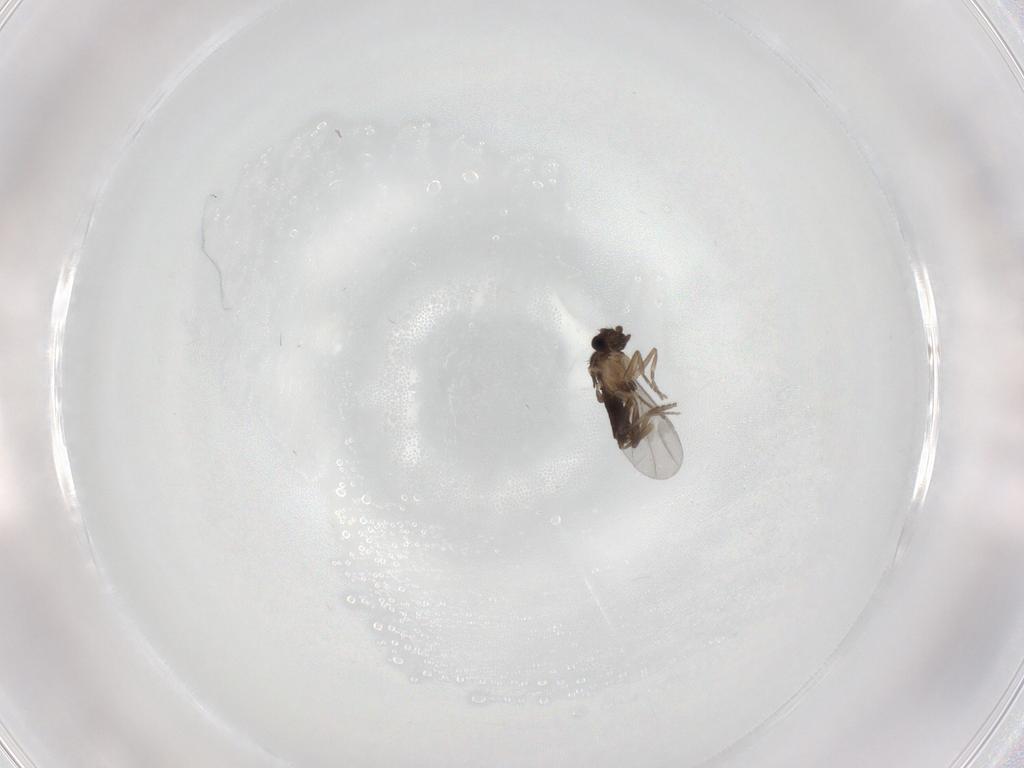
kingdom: Animalia
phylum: Arthropoda
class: Insecta
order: Diptera
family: Phoridae
